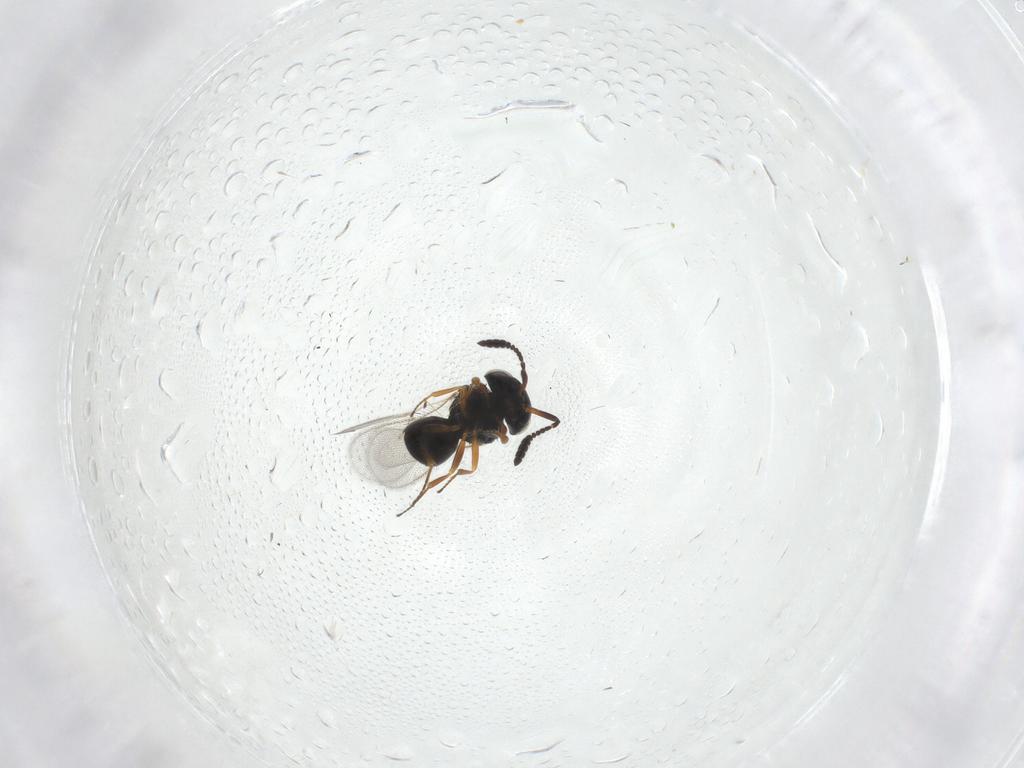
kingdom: Animalia
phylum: Arthropoda
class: Insecta
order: Hymenoptera
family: Scelionidae
